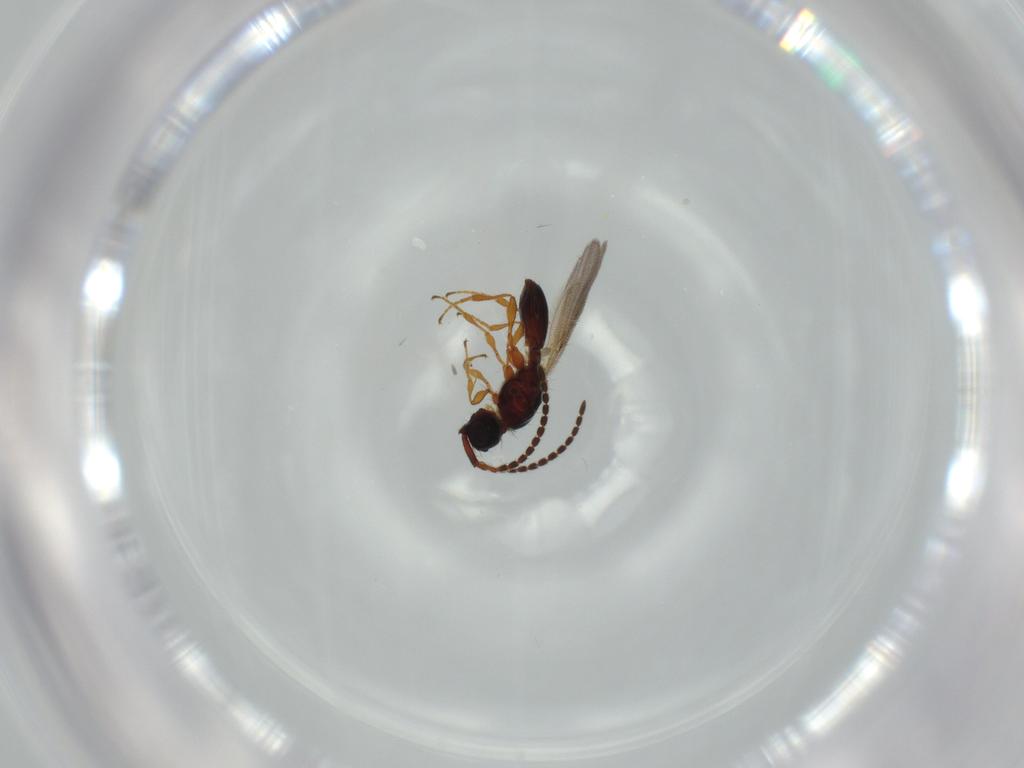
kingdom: Animalia
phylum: Arthropoda
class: Insecta
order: Hymenoptera
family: Diapriidae
